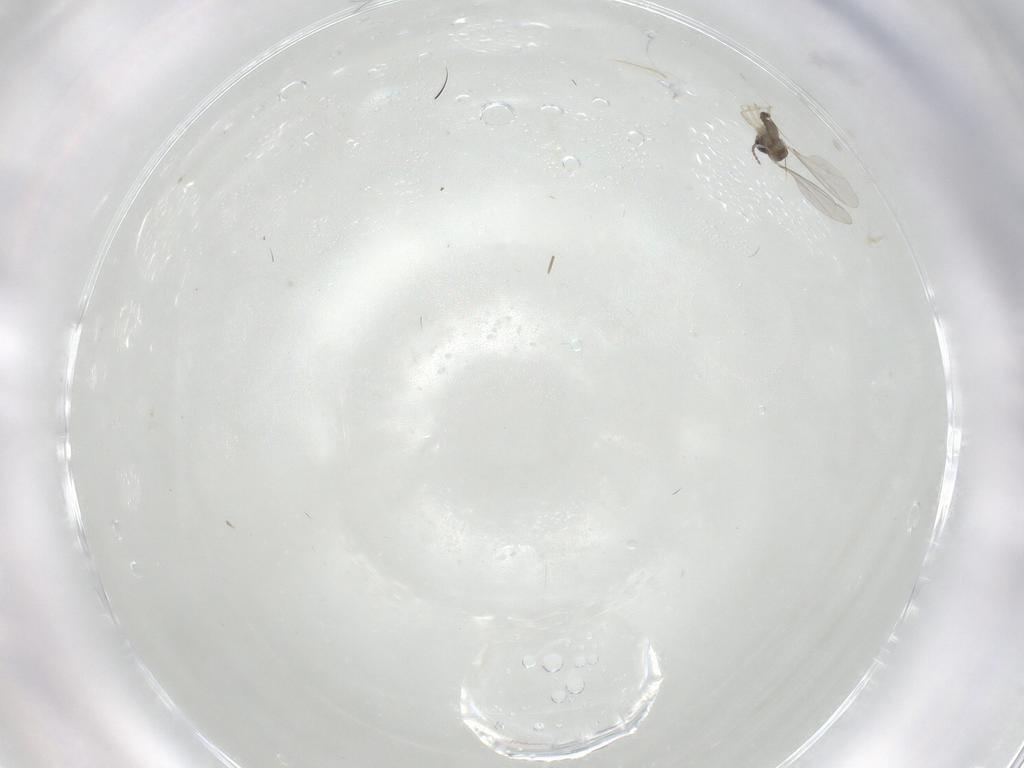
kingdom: Animalia
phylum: Arthropoda
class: Insecta
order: Diptera
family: Cecidomyiidae
